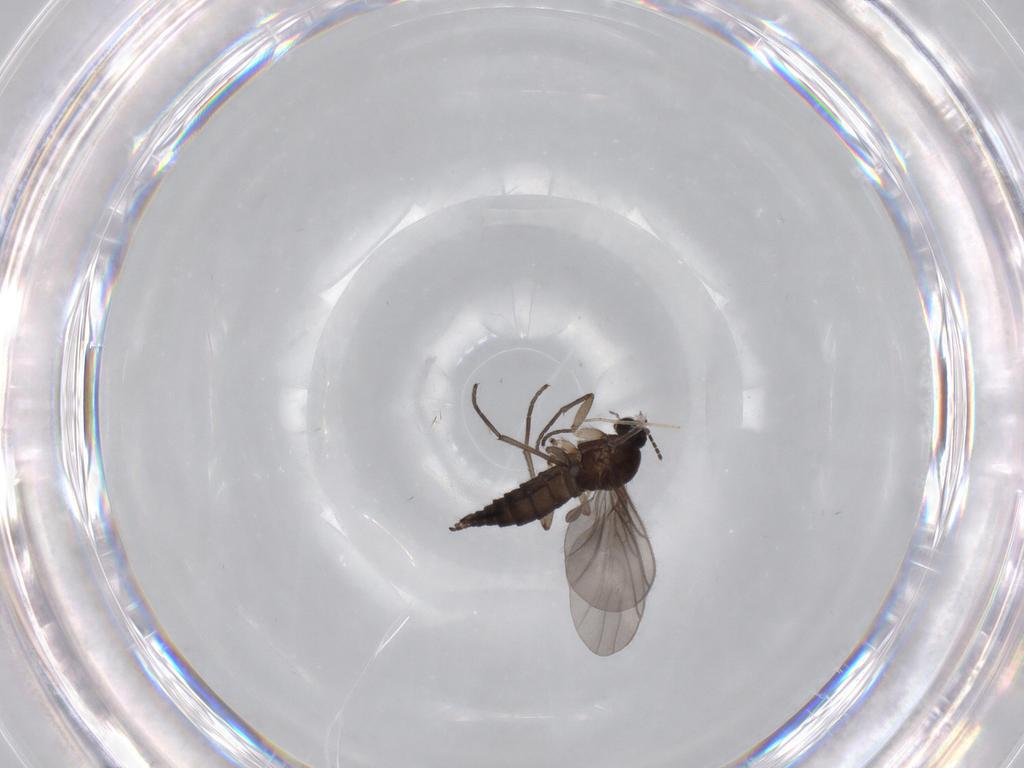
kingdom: Animalia
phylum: Arthropoda
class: Insecta
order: Diptera
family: Sciaridae
